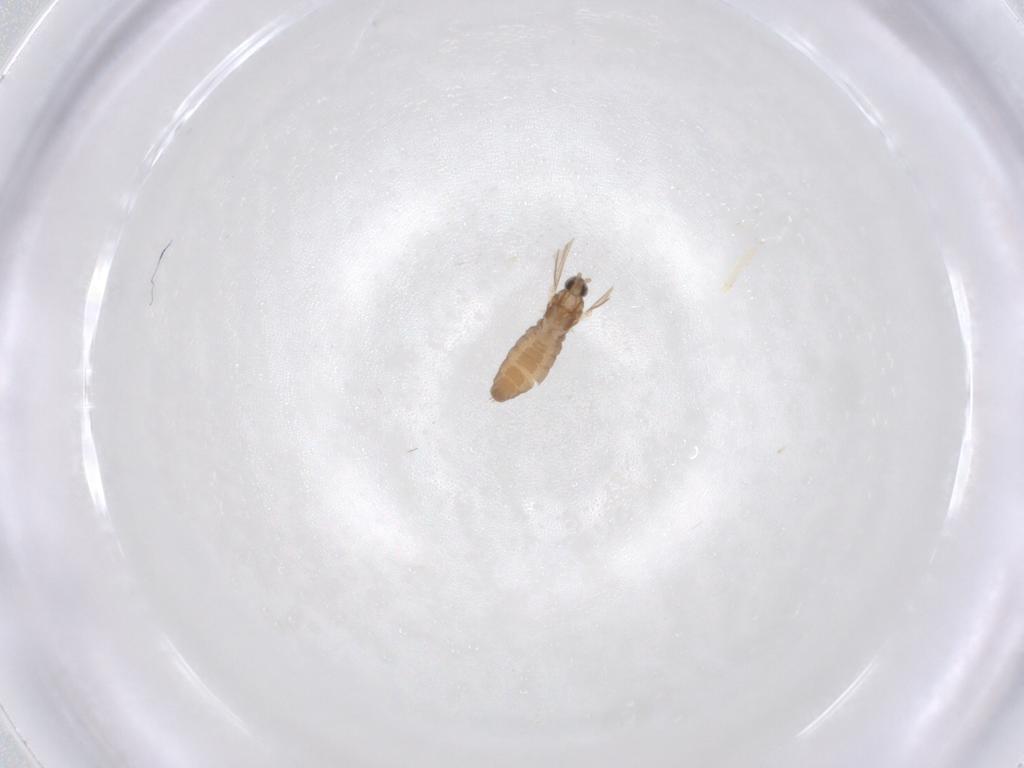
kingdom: Animalia
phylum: Arthropoda
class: Insecta
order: Diptera
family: Cecidomyiidae
